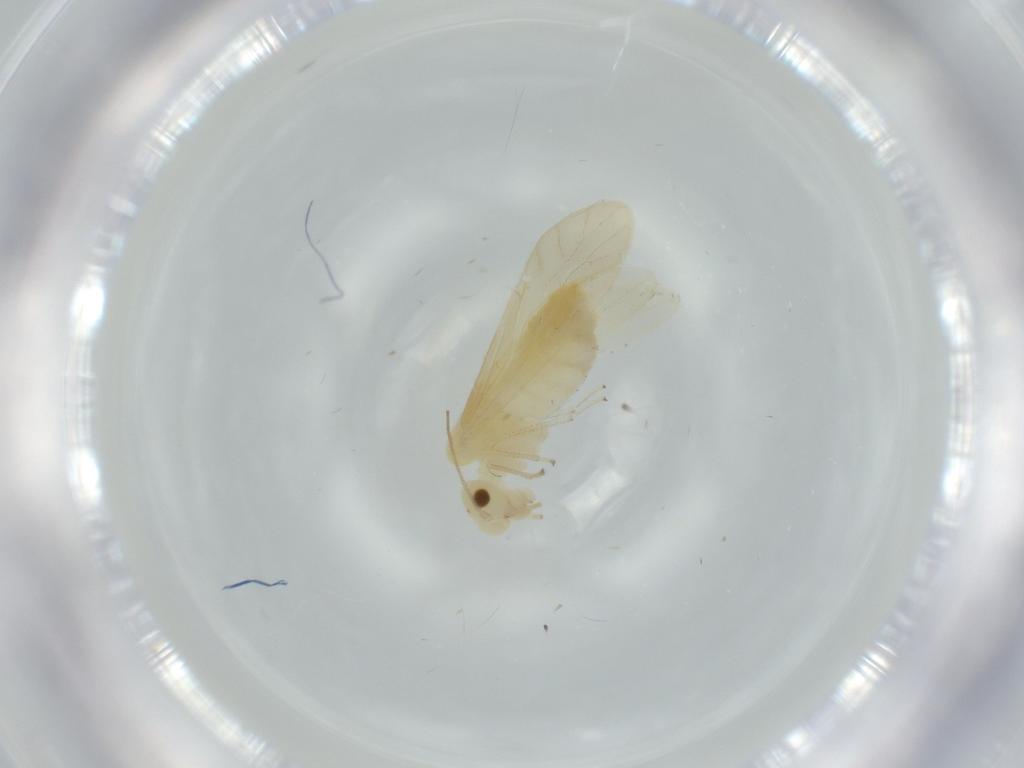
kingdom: Animalia
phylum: Arthropoda
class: Insecta
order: Psocodea
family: Caeciliusidae
